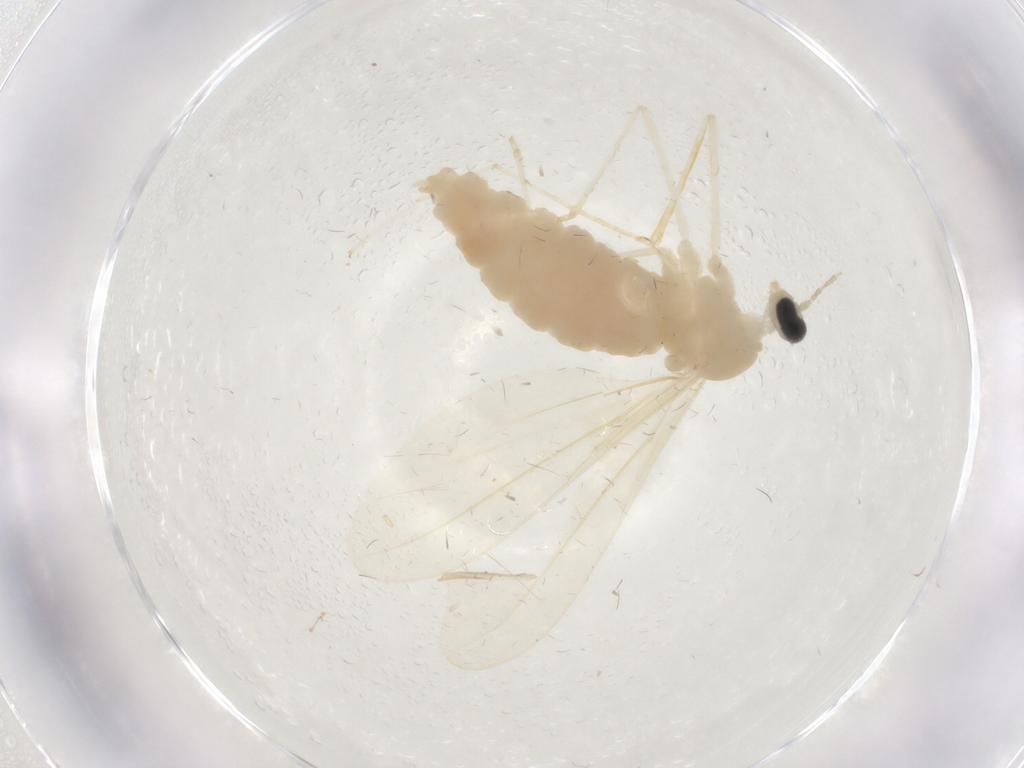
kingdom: Animalia
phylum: Arthropoda
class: Insecta
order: Diptera
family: Cecidomyiidae
